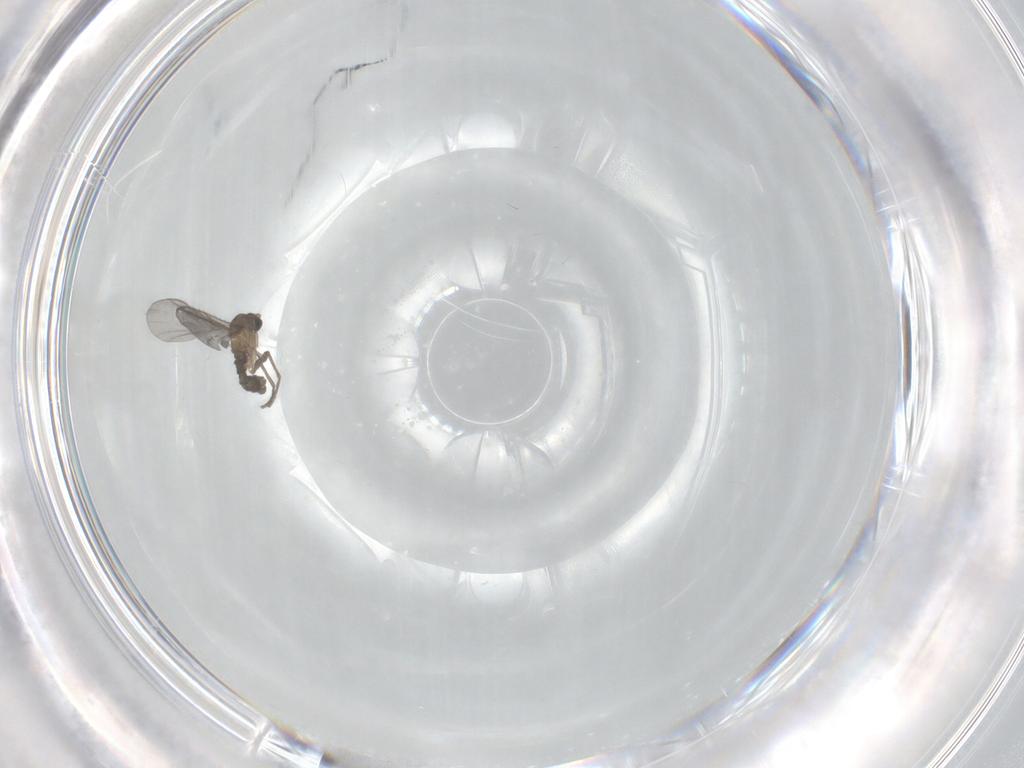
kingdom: Animalia
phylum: Arthropoda
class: Insecta
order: Diptera
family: Sciaridae
